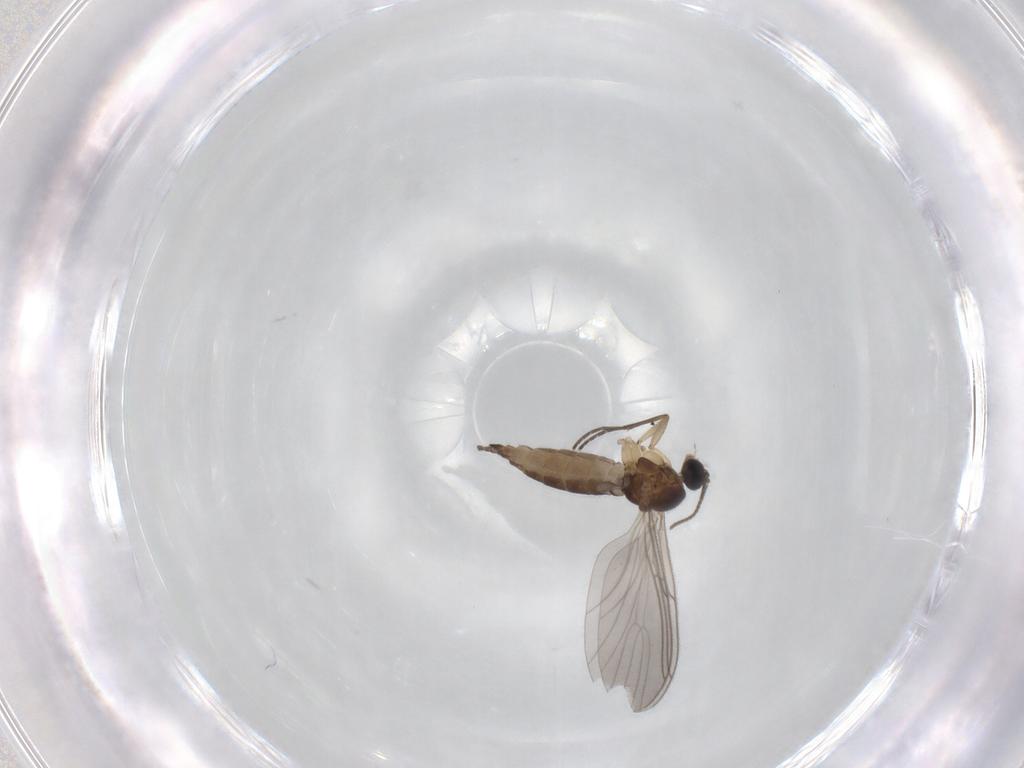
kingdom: Animalia
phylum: Arthropoda
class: Insecta
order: Diptera
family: Sciaridae
